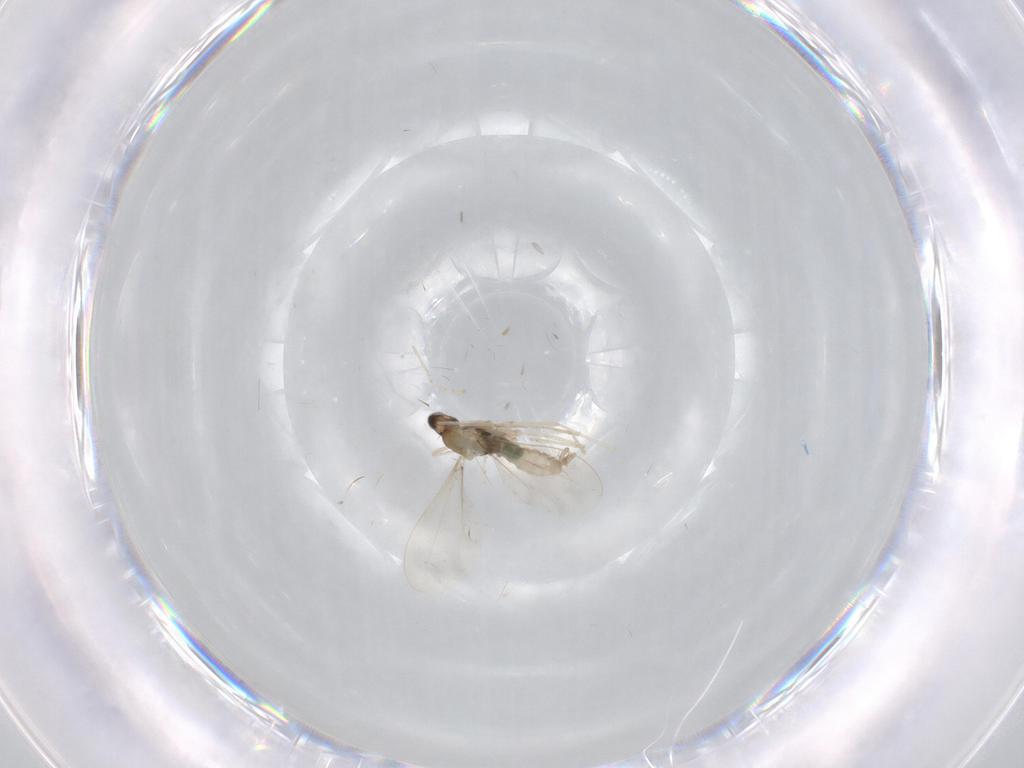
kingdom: Animalia
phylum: Arthropoda
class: Insecta
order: Diptera
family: Cecidomyiidae
